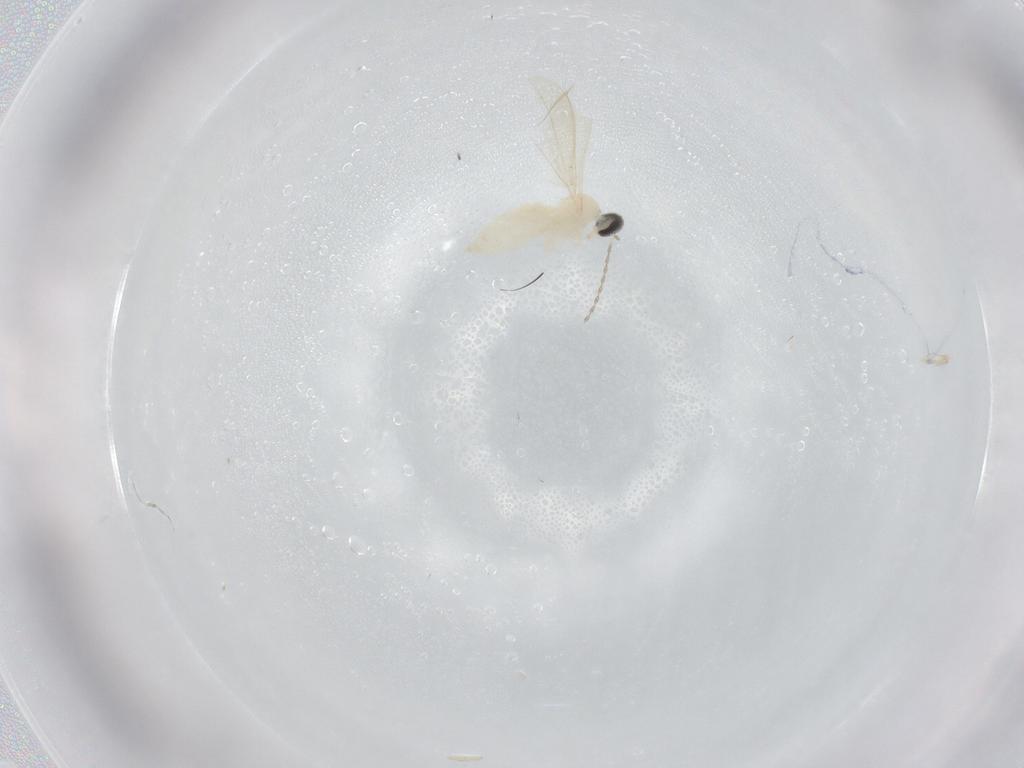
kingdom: Animalia
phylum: Arthropoda
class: Insecta
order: Diptera
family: Cecidomyiidae
